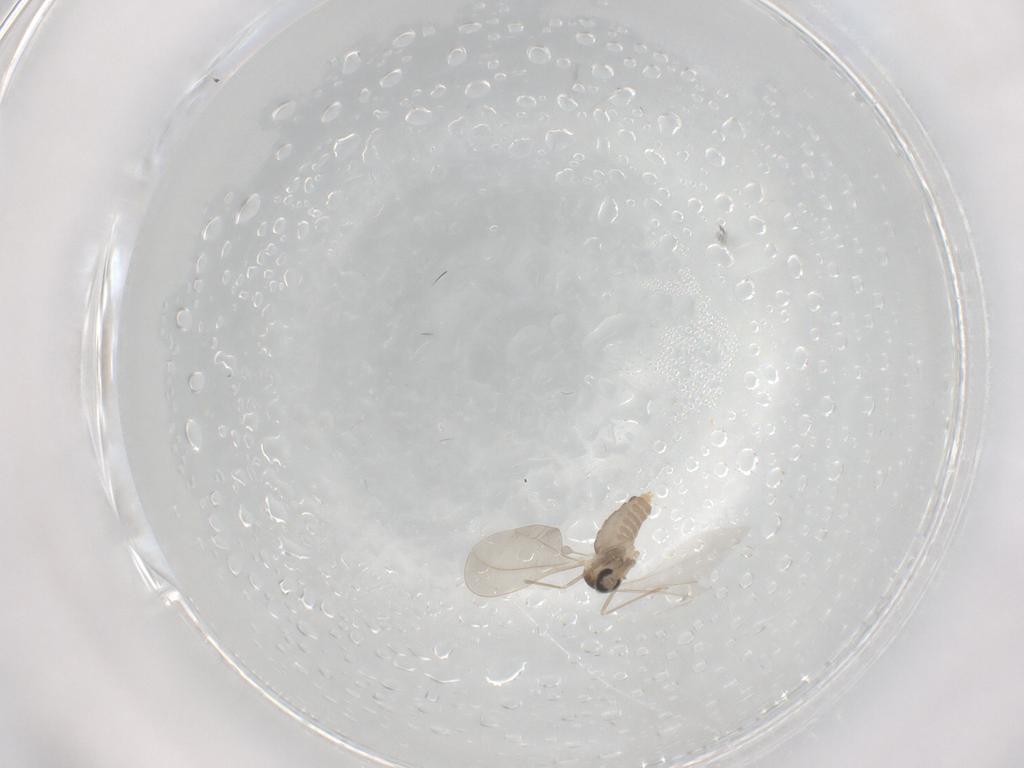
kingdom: Animalia
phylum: Arthropoda
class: Insecta
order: Diptera
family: Cecidomyiidae
